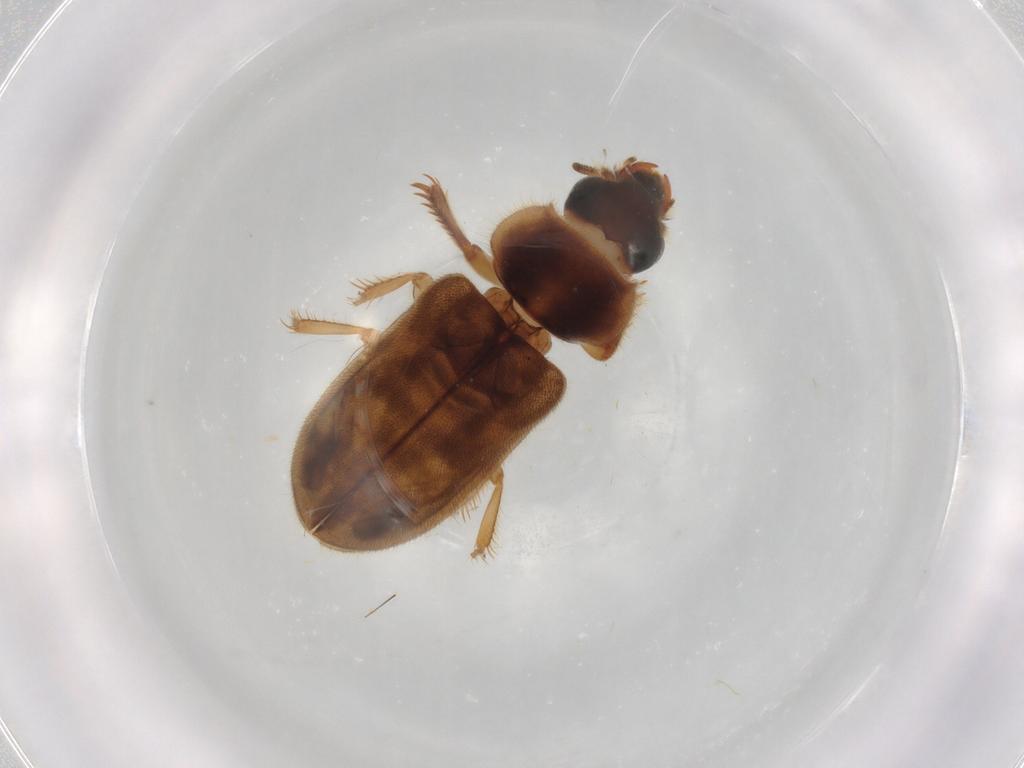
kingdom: Animalia
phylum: Arthropoda
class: Insecta
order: Coleoptera
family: Heteroceridae
